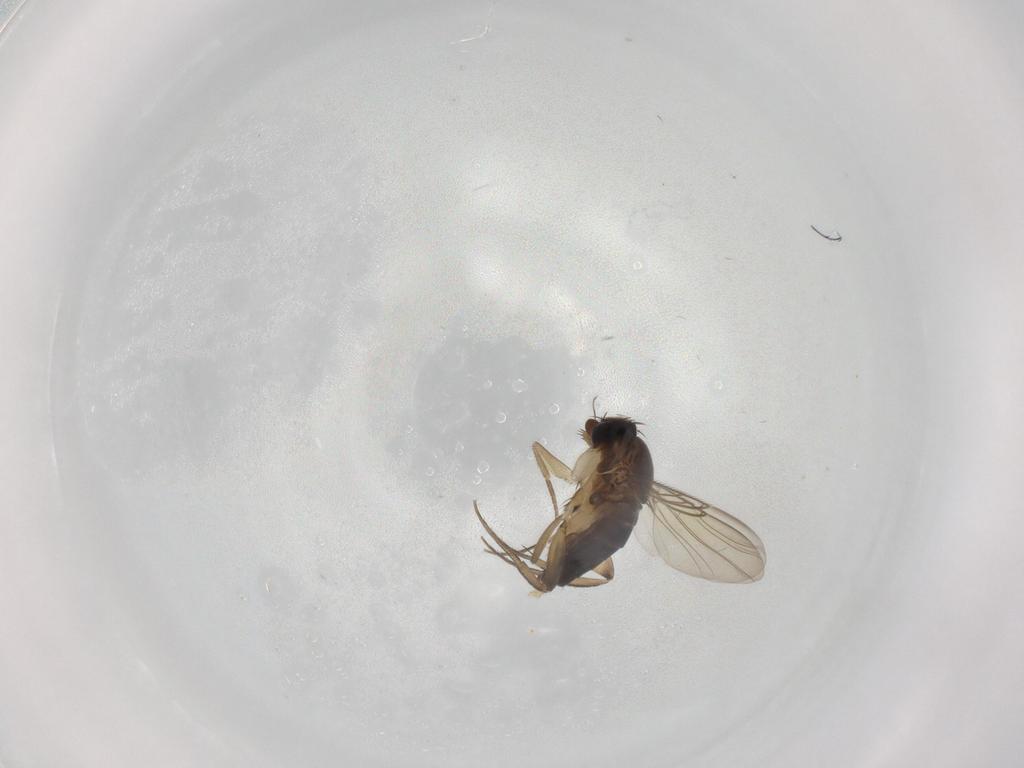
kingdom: Animalia
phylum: Arthropoda
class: Insecta
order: Diptera
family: Phoridae
